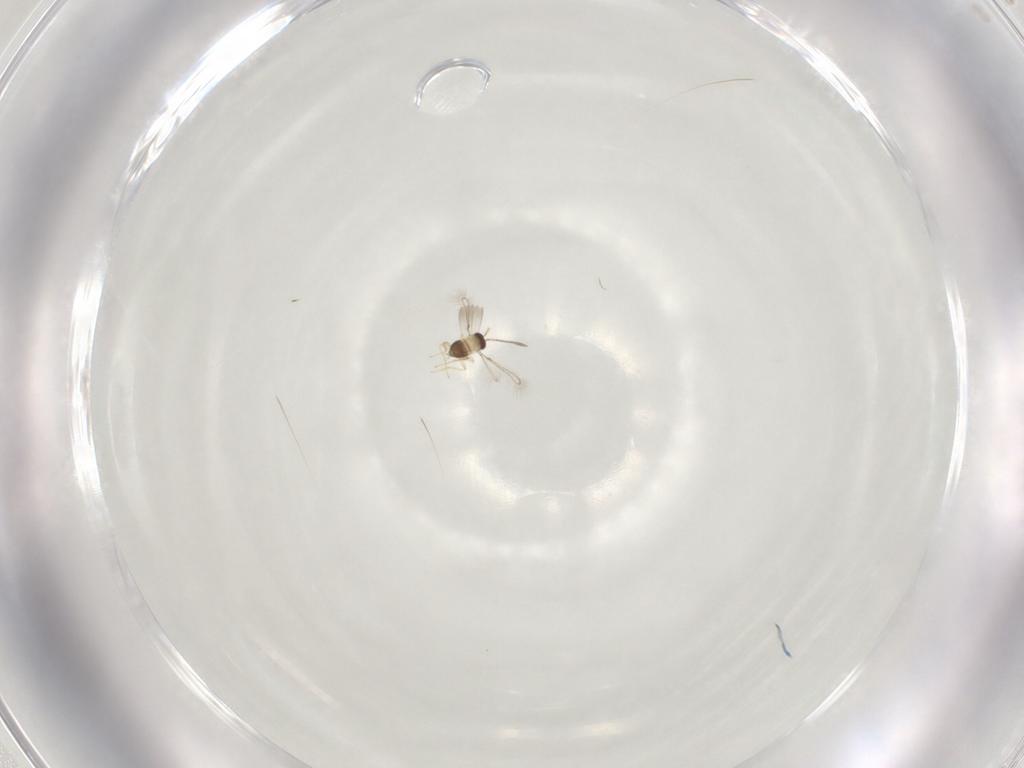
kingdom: Animalia
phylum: Arthropoda
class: Insecta
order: Hymenoptera
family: Mymaridae
